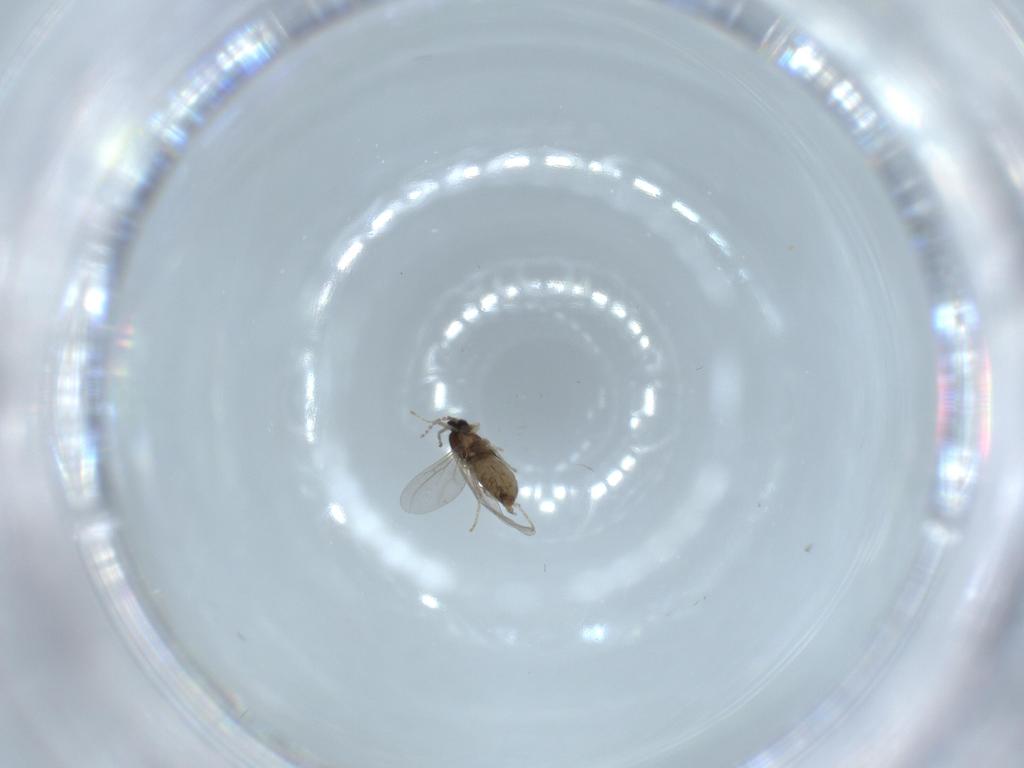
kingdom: Animalia
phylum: Arthropoda
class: Insecta
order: Diptera
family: Cecidomyiidae
